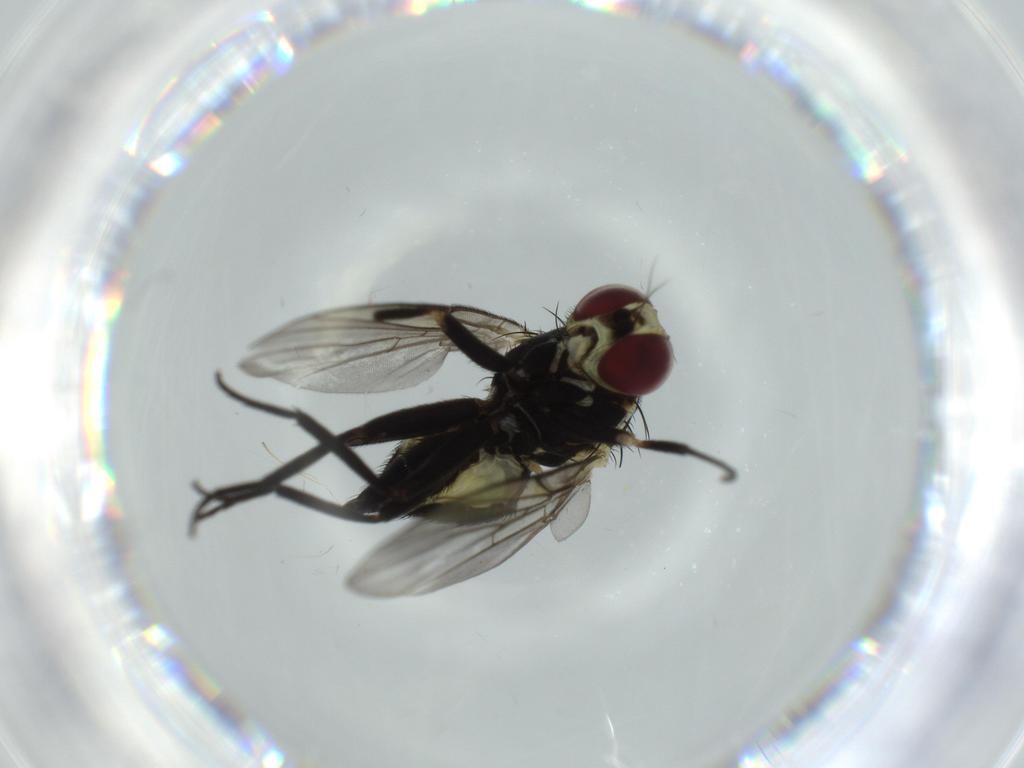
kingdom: Animalia
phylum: Arthropoda
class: Insecta
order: Diptera
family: Agromyzidae
